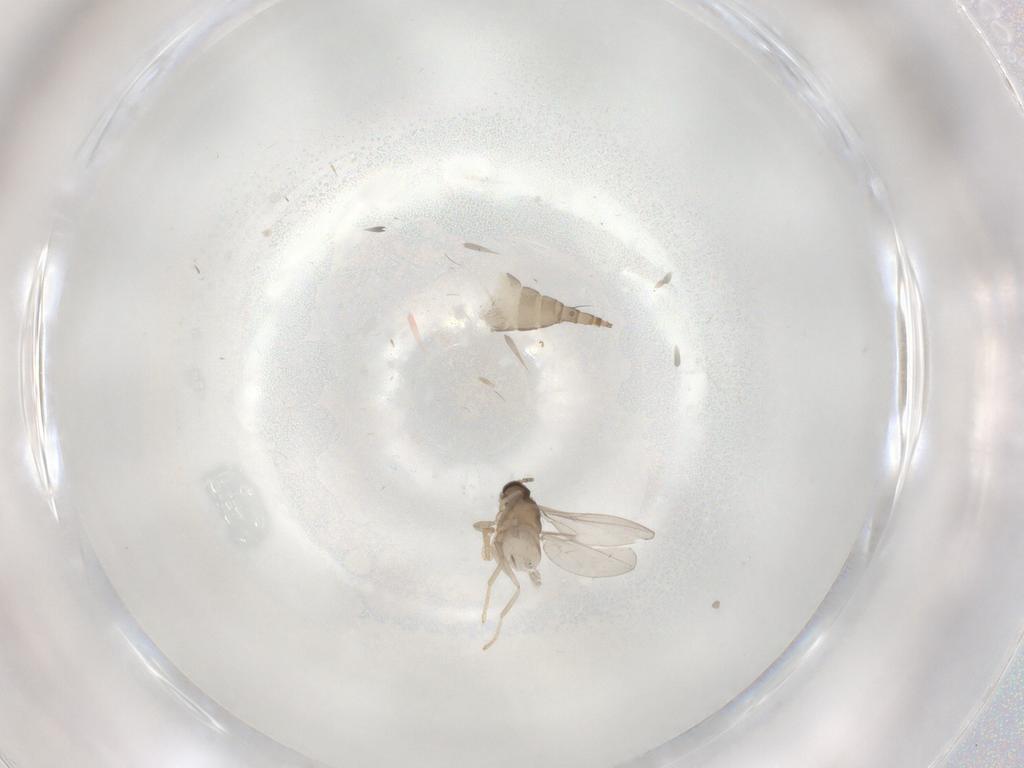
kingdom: Animalia
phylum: Arthropoda
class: Insecta
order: Diptera
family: Cecidomyiidae
